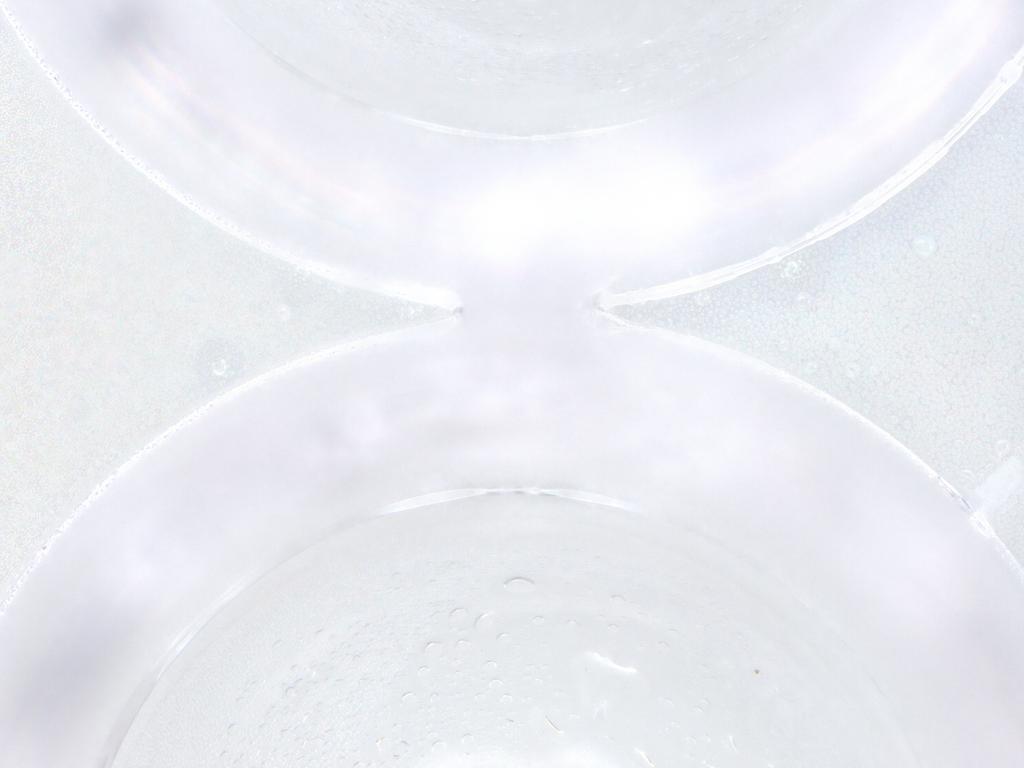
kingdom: Animalia
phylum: Arthropoda
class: Insecta
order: Diptera
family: Cecidomyiidae
